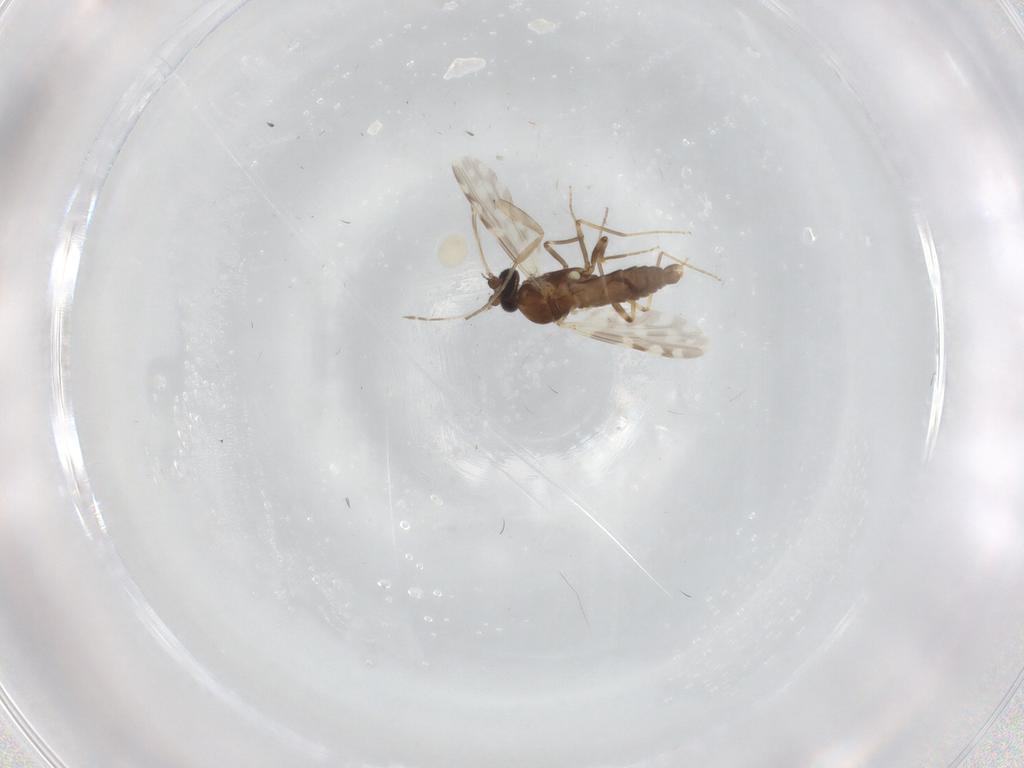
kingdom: Animalia
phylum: Arthropoda
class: Insecta
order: Diptera
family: Ceratopogonidae
